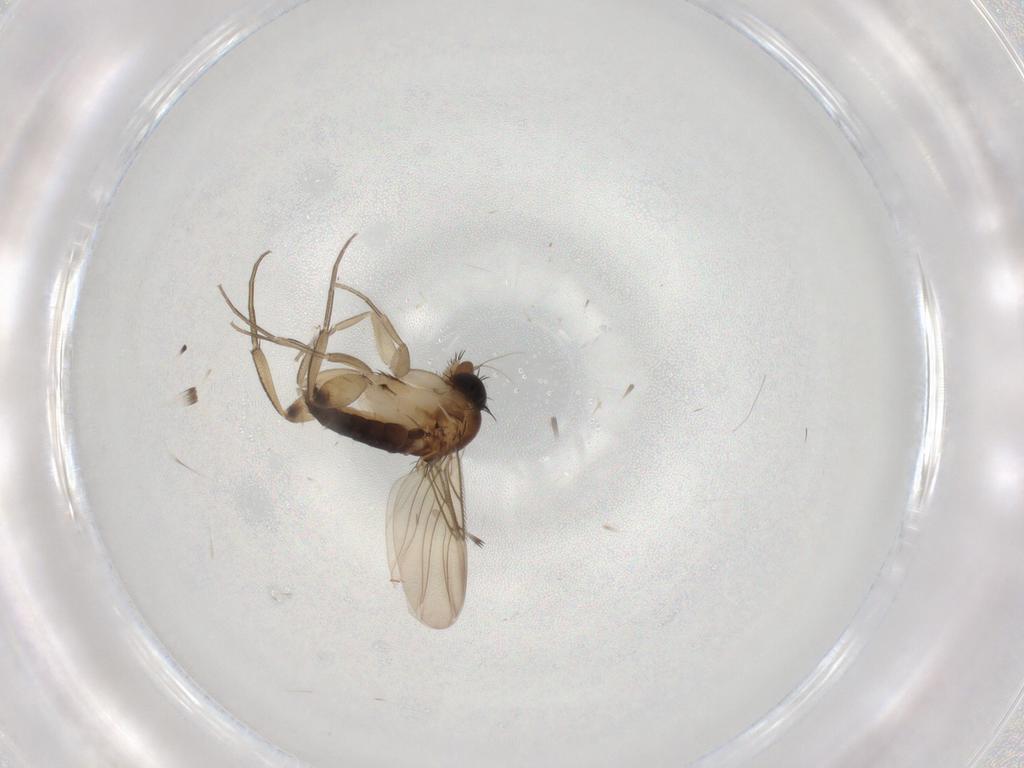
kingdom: Animalia
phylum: Arthropoda
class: Insecta
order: Diptera
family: Phoridae
